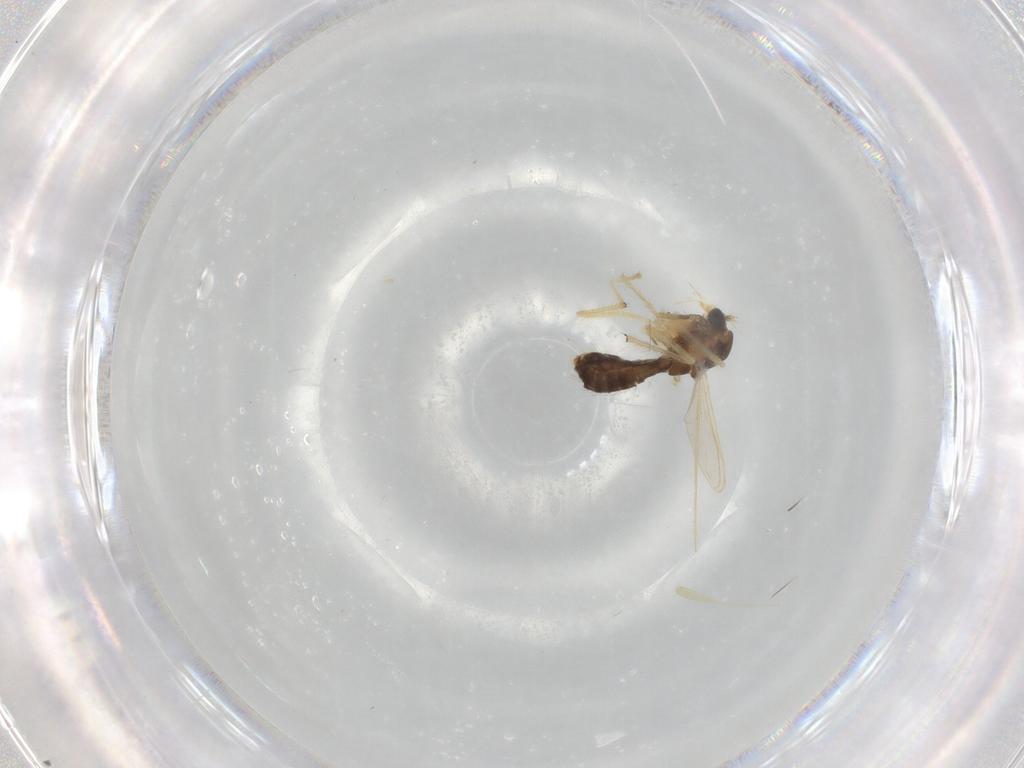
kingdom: Animalia
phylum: Arthropoda
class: Insecta
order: Diptera
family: Chironomidae
